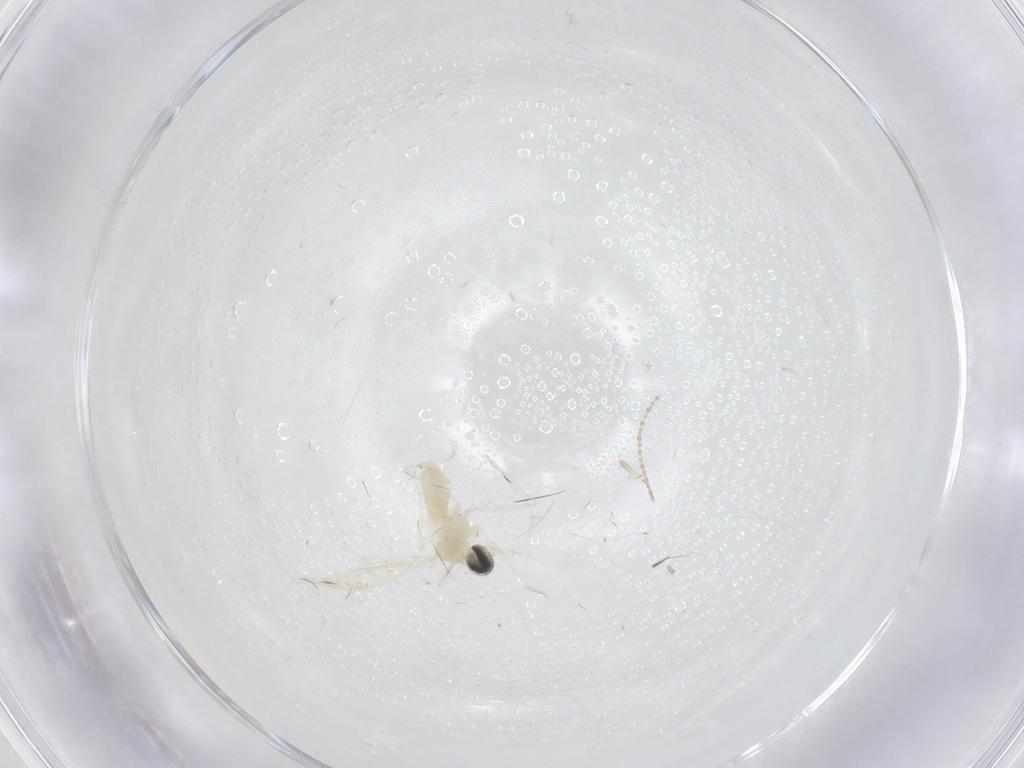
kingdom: Animalia
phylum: Arthropoda
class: Insecta
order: Diptera
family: Cecidomyiidae
